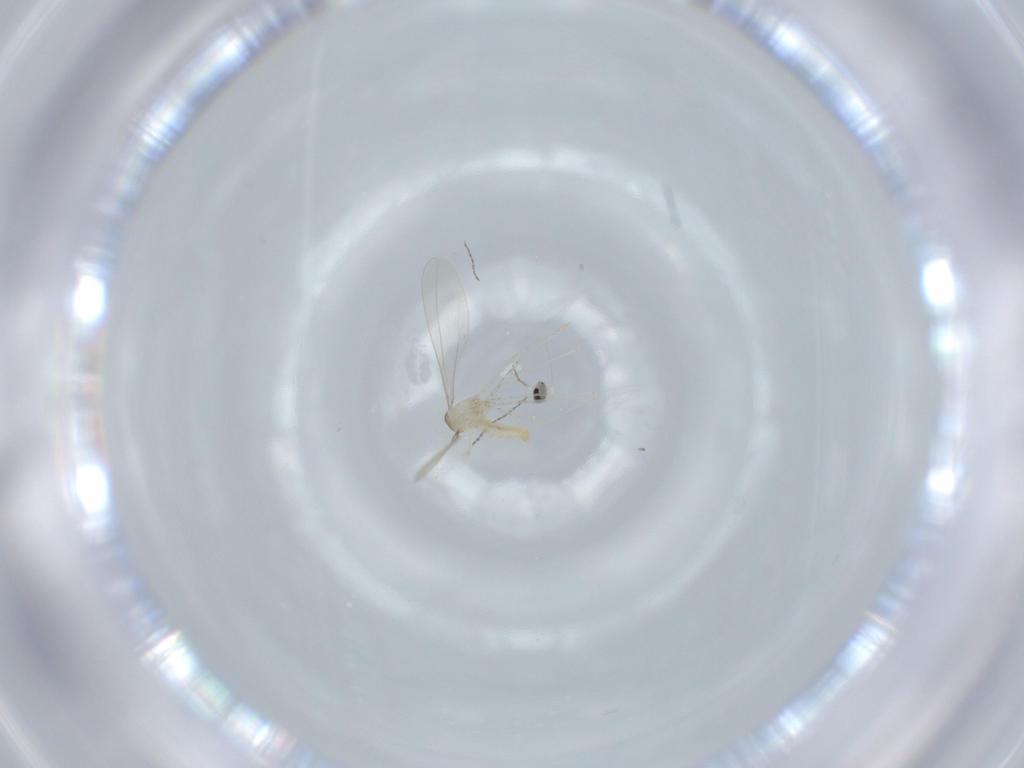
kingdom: Animalia
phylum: Arthropoda
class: Insecta
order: Diptera
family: Cecidomyiidae
